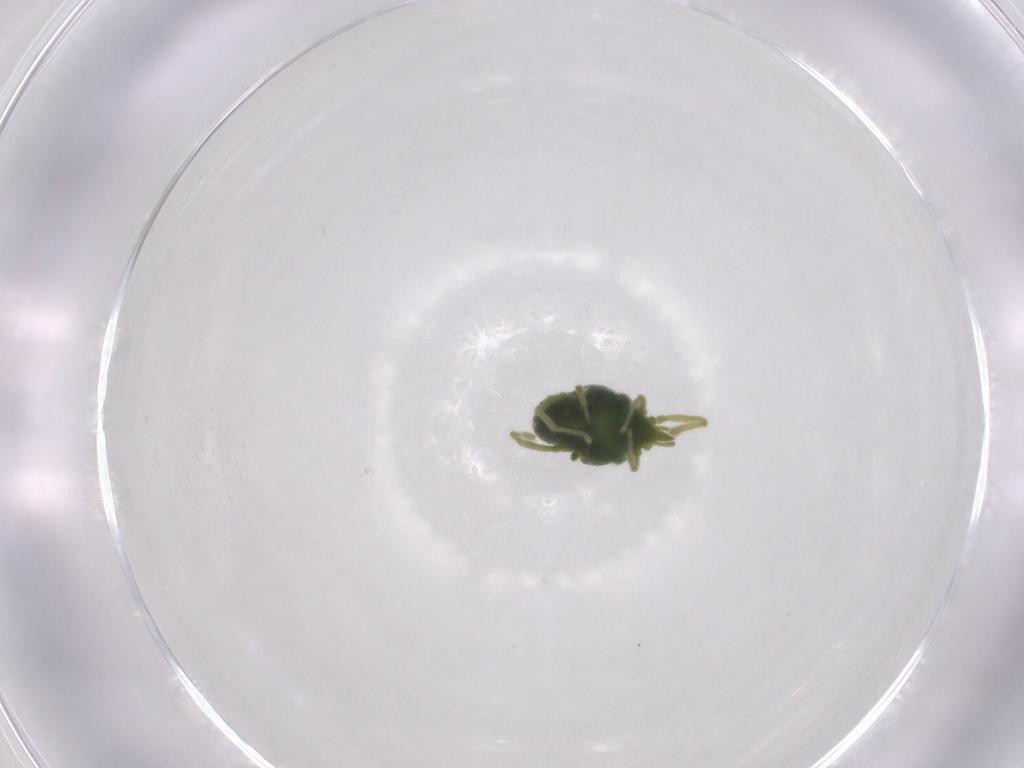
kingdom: Animalia
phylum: Arthropoda
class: Arachnida
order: Trombidiformes
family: Erythraeidae
